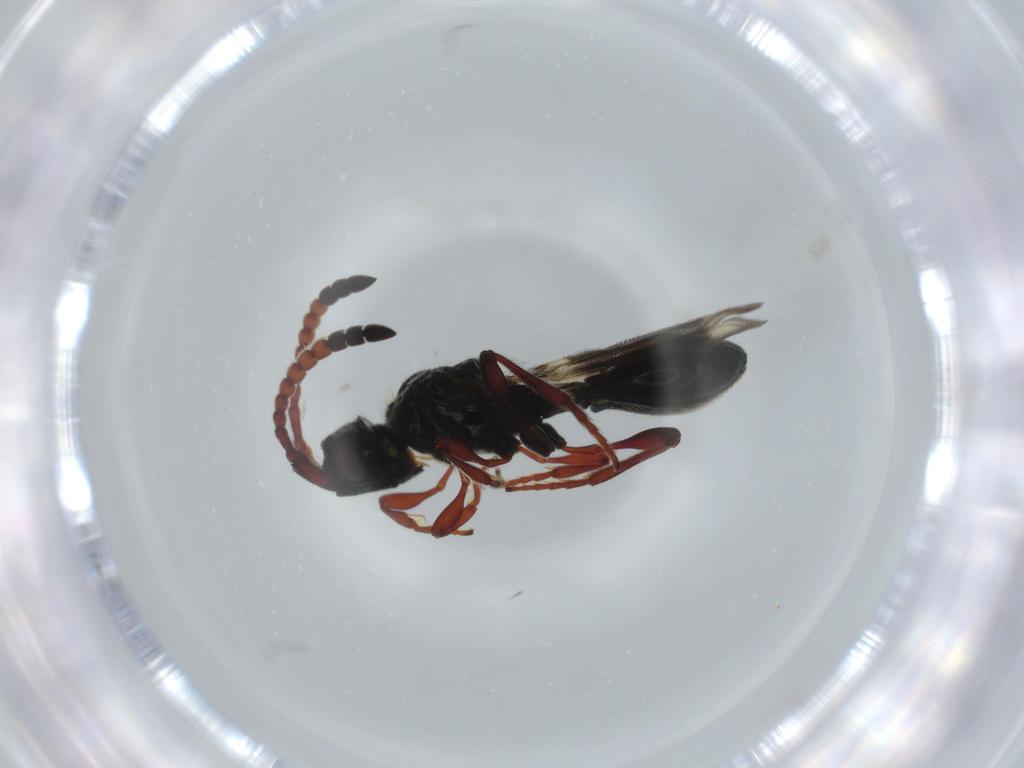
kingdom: Animalia
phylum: Arthropoda
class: Insecta
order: Hymenoptera
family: Diapriidae
